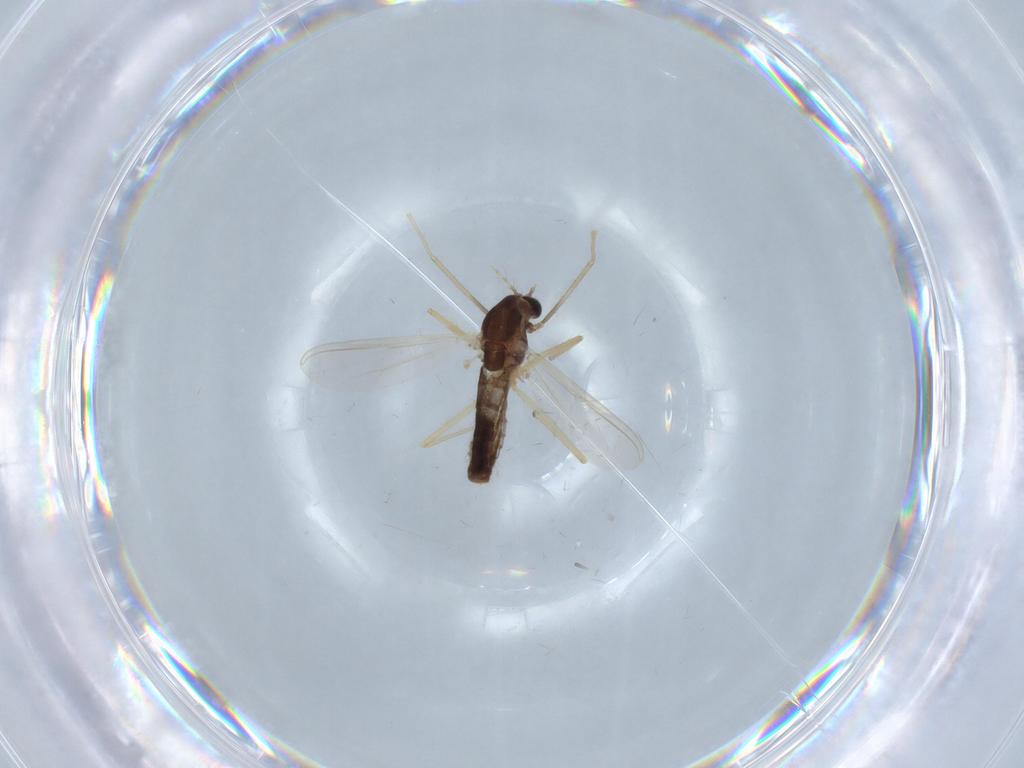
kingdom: Animalia
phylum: Arthropoda
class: Insecta
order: Diptera
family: Chironomidae
